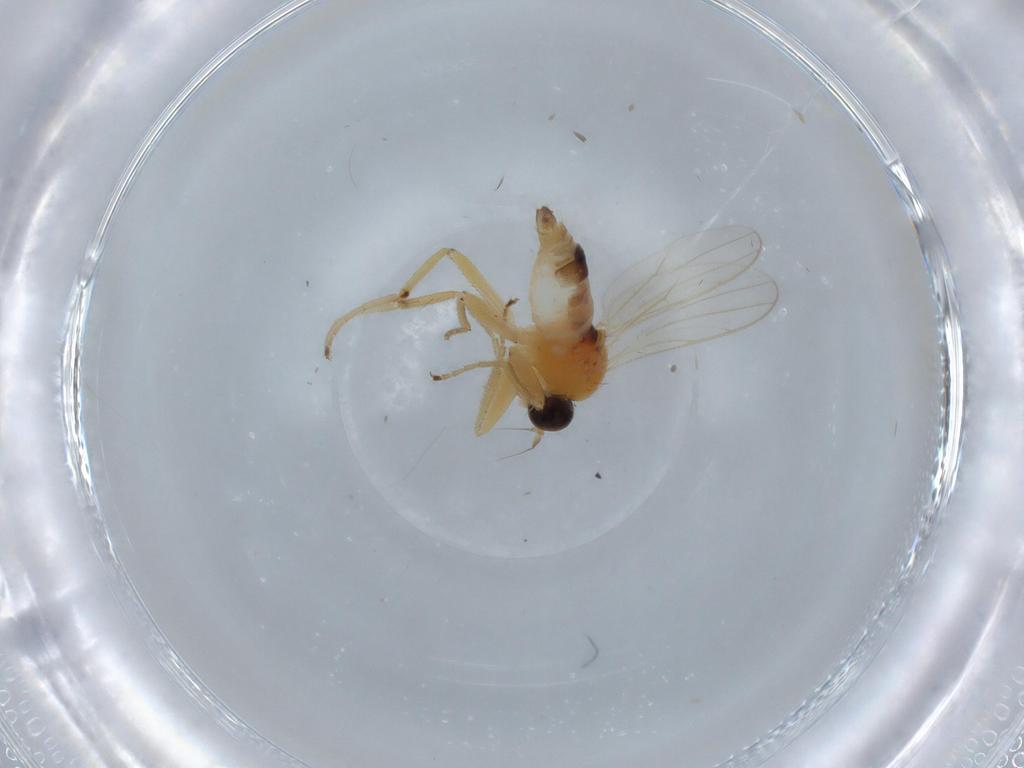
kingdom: Animalia
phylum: Arthropoda
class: Insecta
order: Diptera
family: Hybotidae
